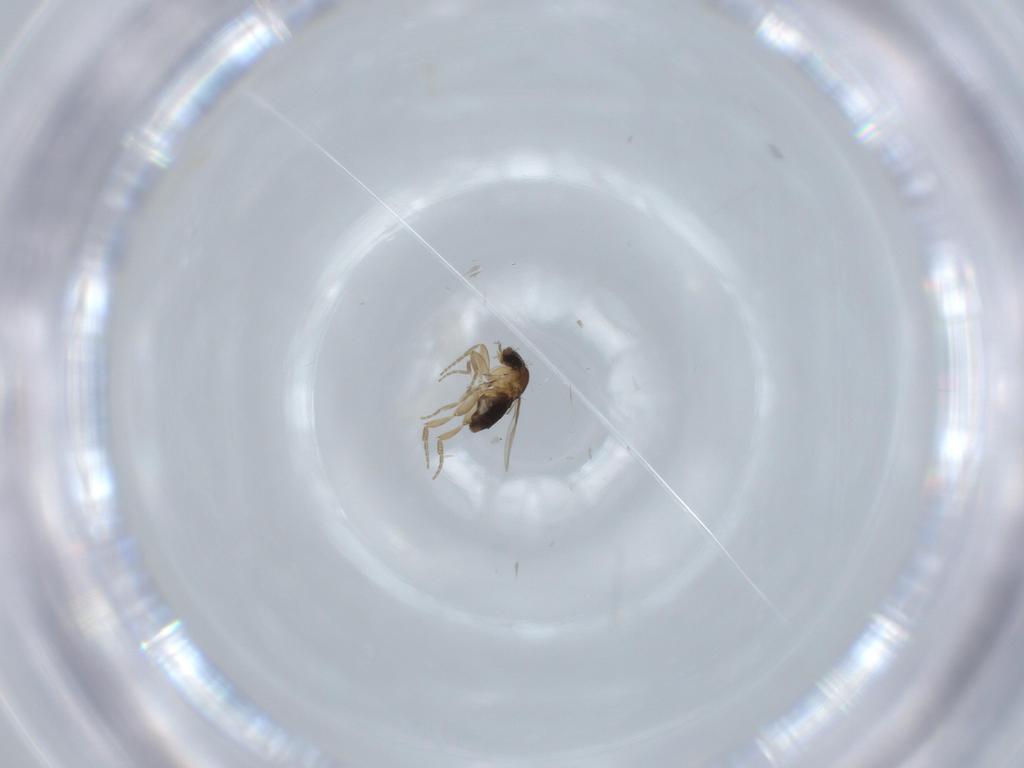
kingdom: Animalia
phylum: Arthropoda
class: Insecta
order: Diptera
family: Phoridae
